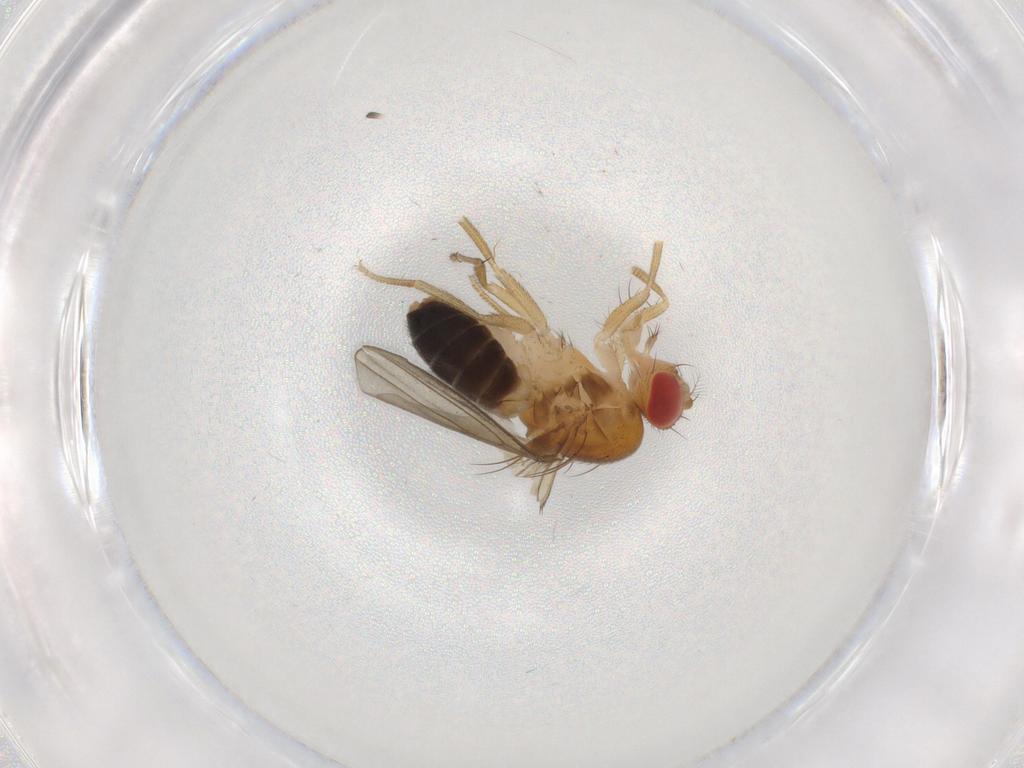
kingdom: Animalia
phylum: Arthropoda
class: Insecta
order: Diptera
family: Drosophilidae
